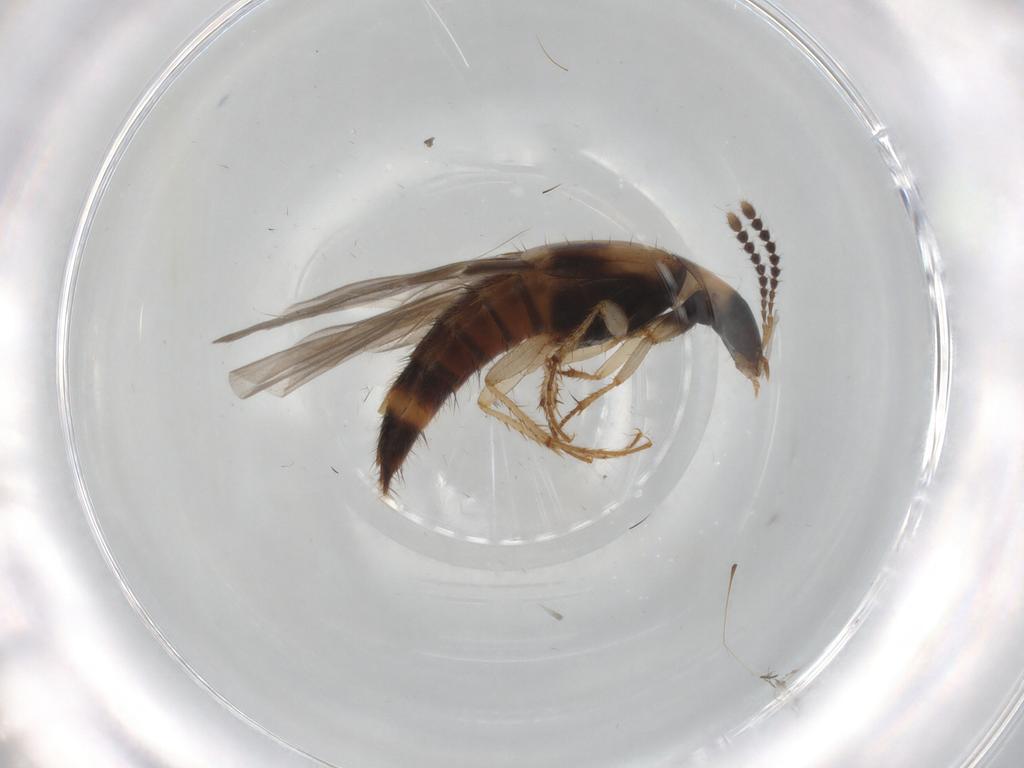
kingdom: Animalia
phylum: Arthropoda
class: Insecta
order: Coleoptera
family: Staphylinidae
